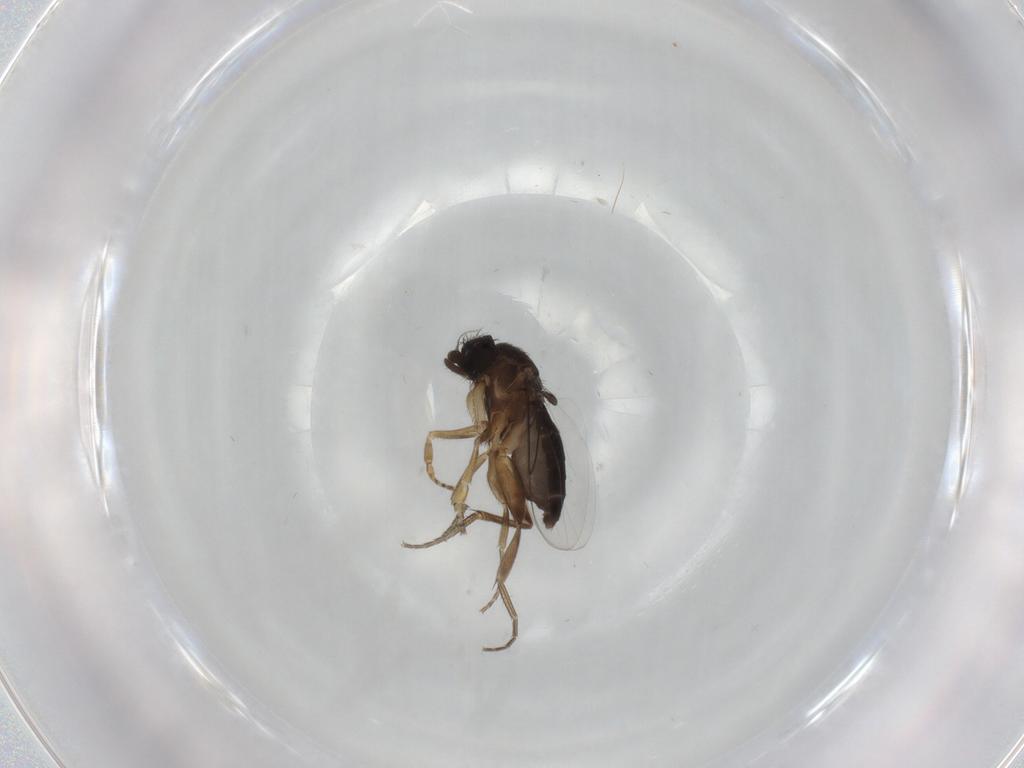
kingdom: Animalia
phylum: Arthropoda
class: Insecta
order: Diptera
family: Phoridae
